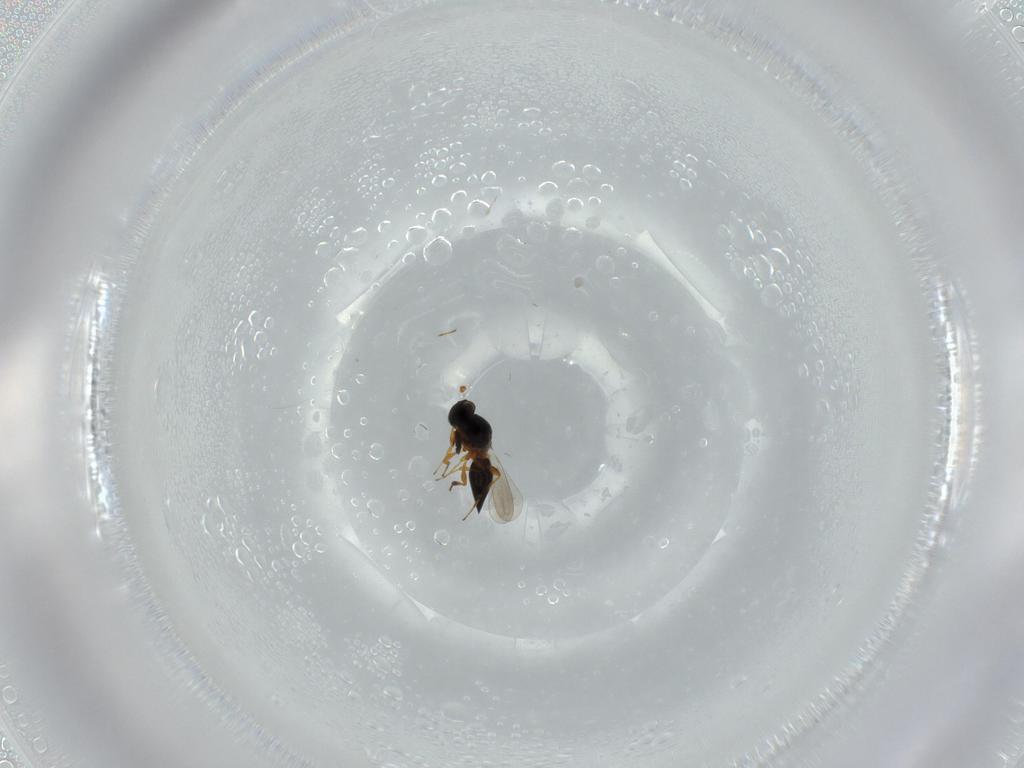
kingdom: Animalia
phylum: Arthropoda
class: Insecta
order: Hymenoptera
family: Platygastridae
